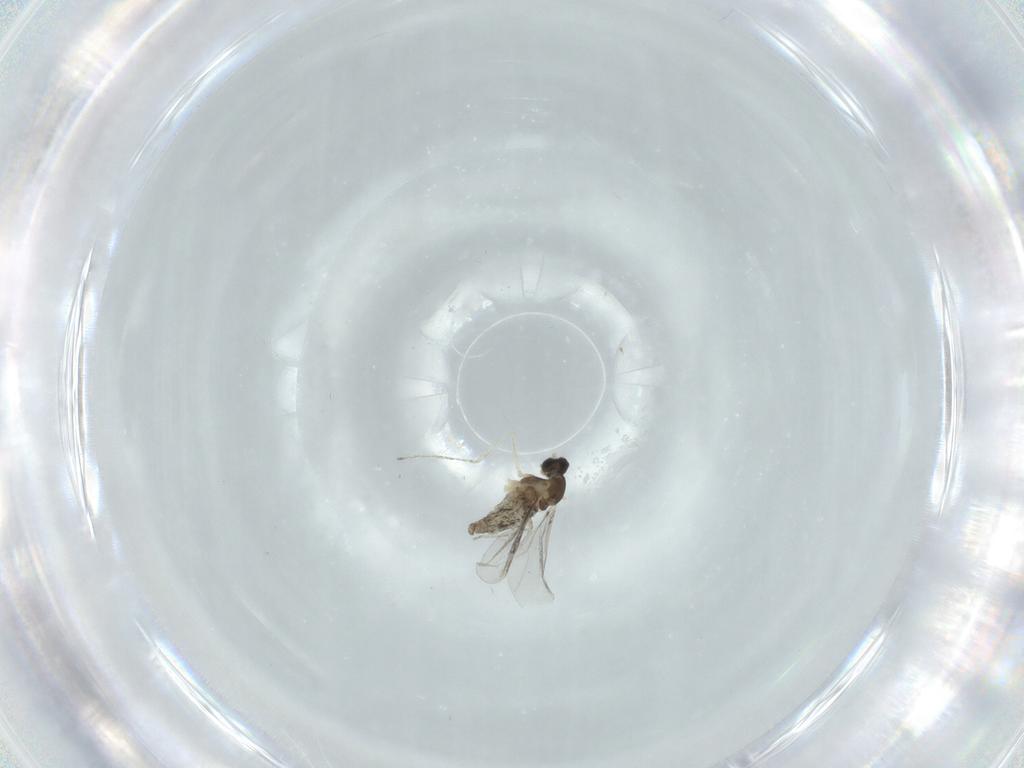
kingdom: Animalia
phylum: Arthropoda
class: Insecta
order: Diptera
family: Cecidomyiidae
